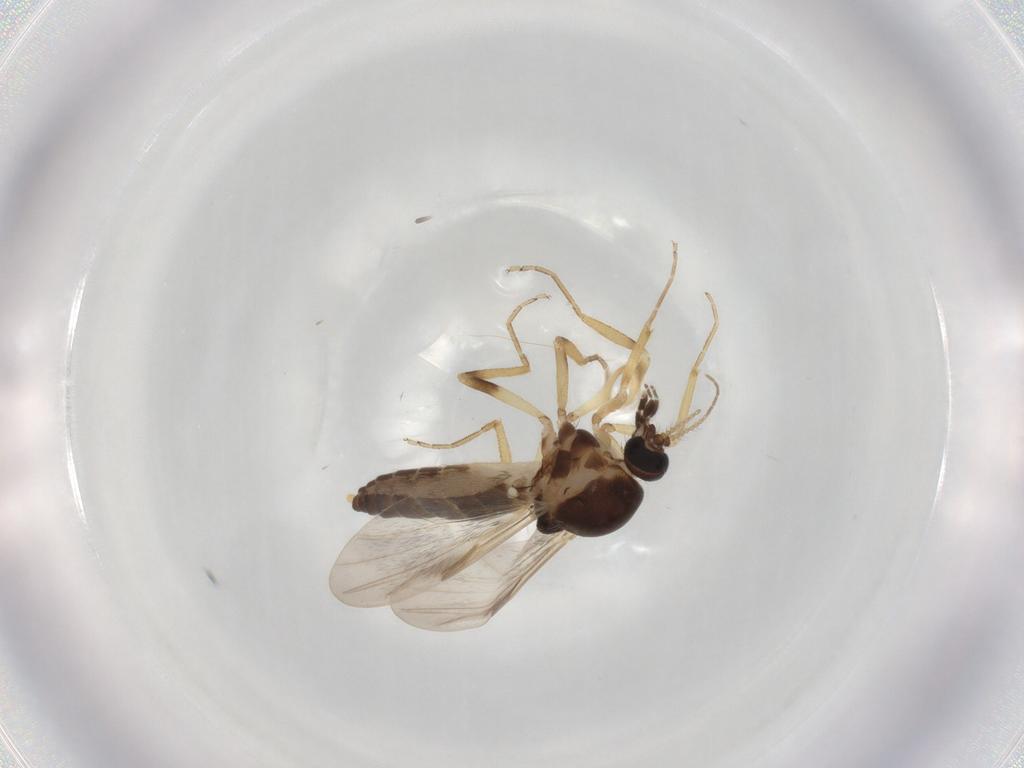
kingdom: Animalia
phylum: Arthropoda
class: Insecta
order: Diptera
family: Ceratopogonidae
